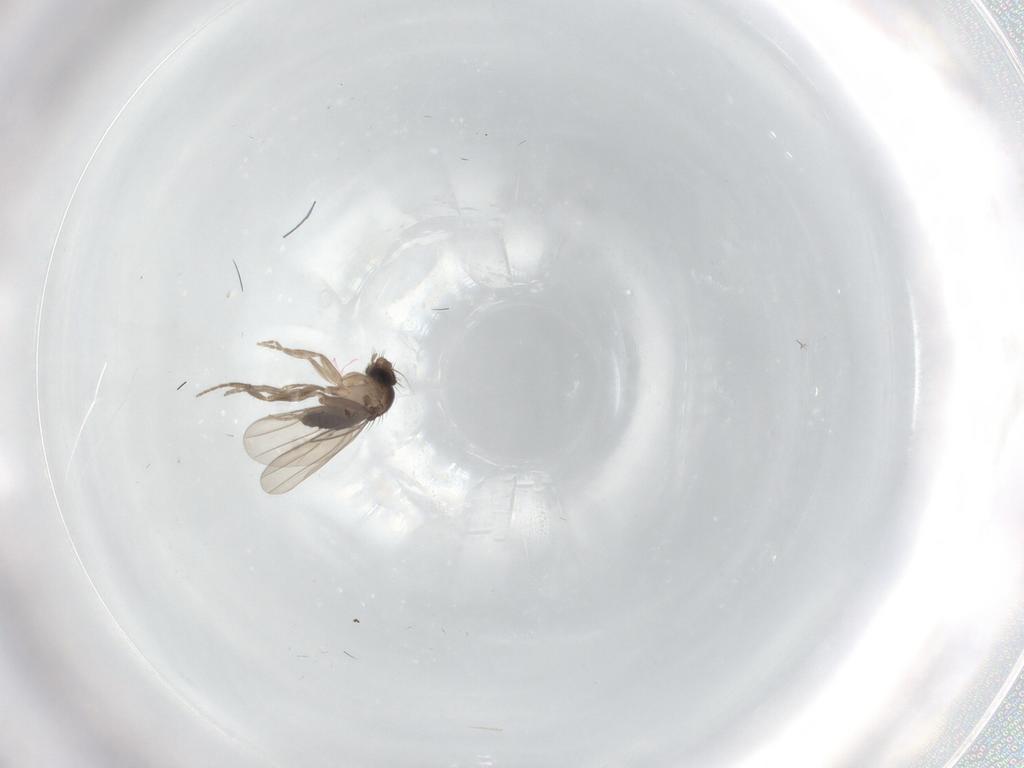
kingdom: Animalia
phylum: Arthropoda
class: Insecta
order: Diptera
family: Phoridae
